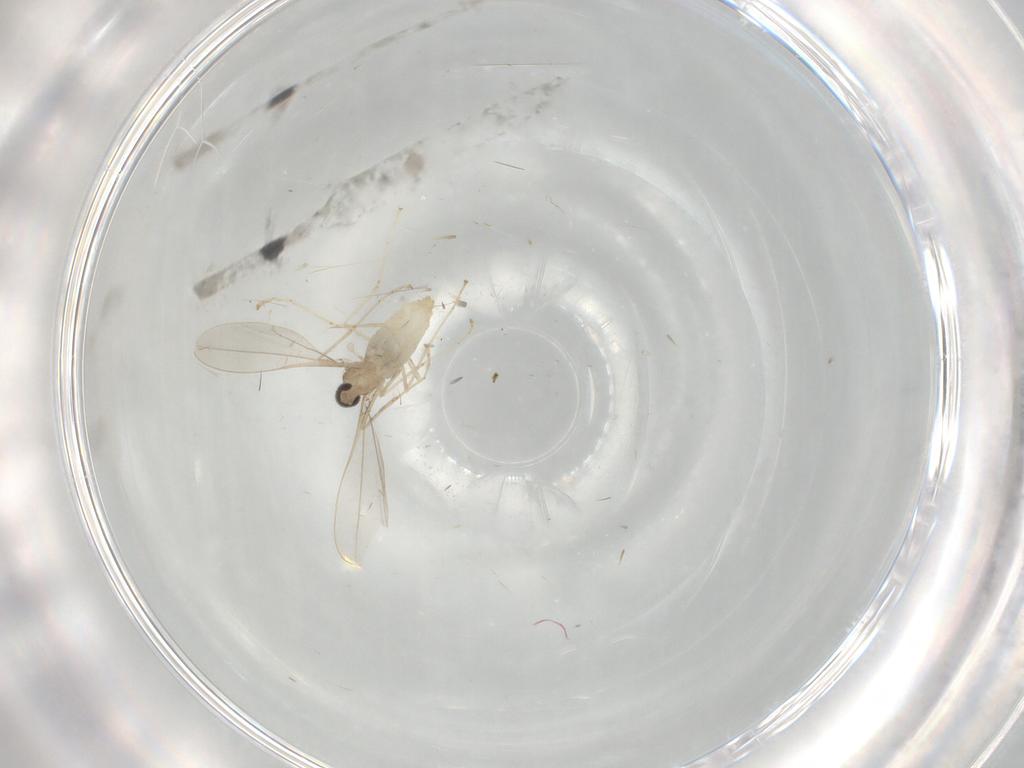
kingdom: Animalia
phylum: Arthropoda
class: Insecta
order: Diptera
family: Cecidomyiidae
